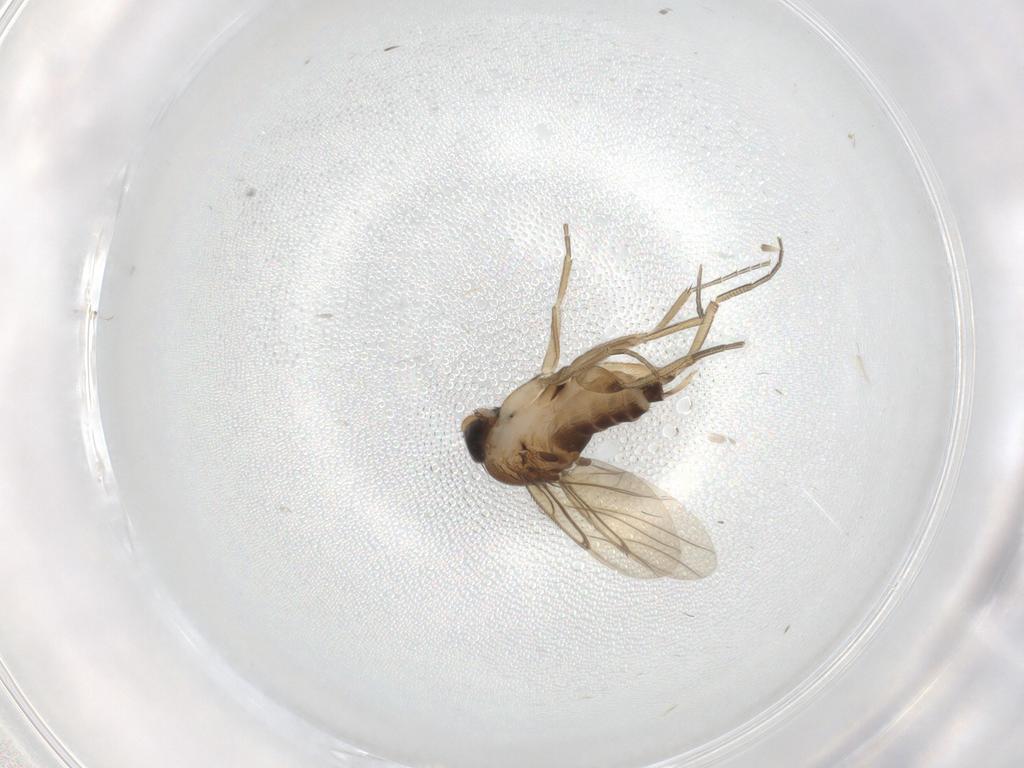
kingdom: Animalia
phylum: Arthropoda
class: Insecta
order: Diptera
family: Phoridae
